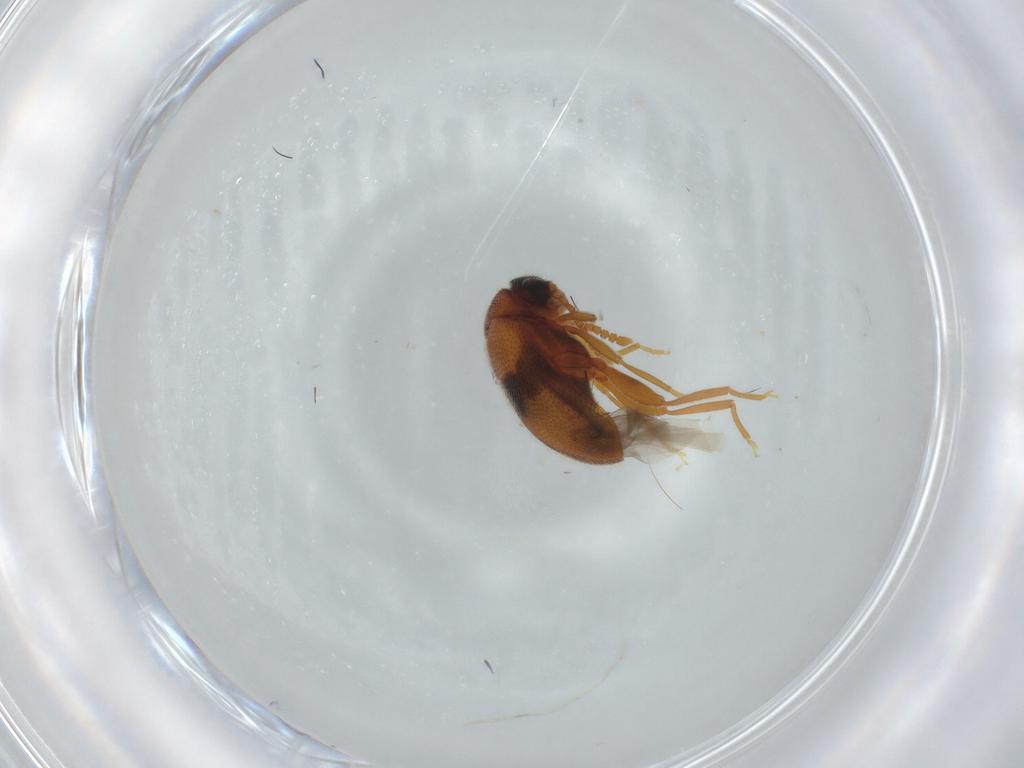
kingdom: Animalia
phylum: Arthropoda
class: Insecta
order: Coleoptera
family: Aderidae
